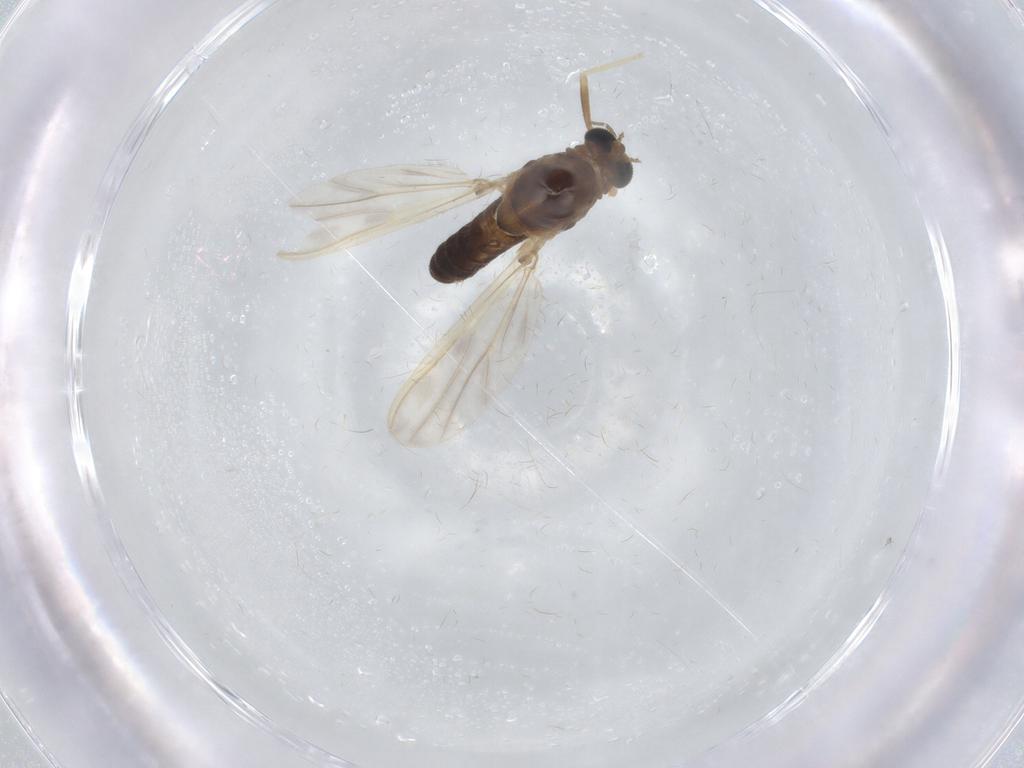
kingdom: Animalia
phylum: Arthropoda
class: Insecta
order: Diptera
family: Chironomidae
